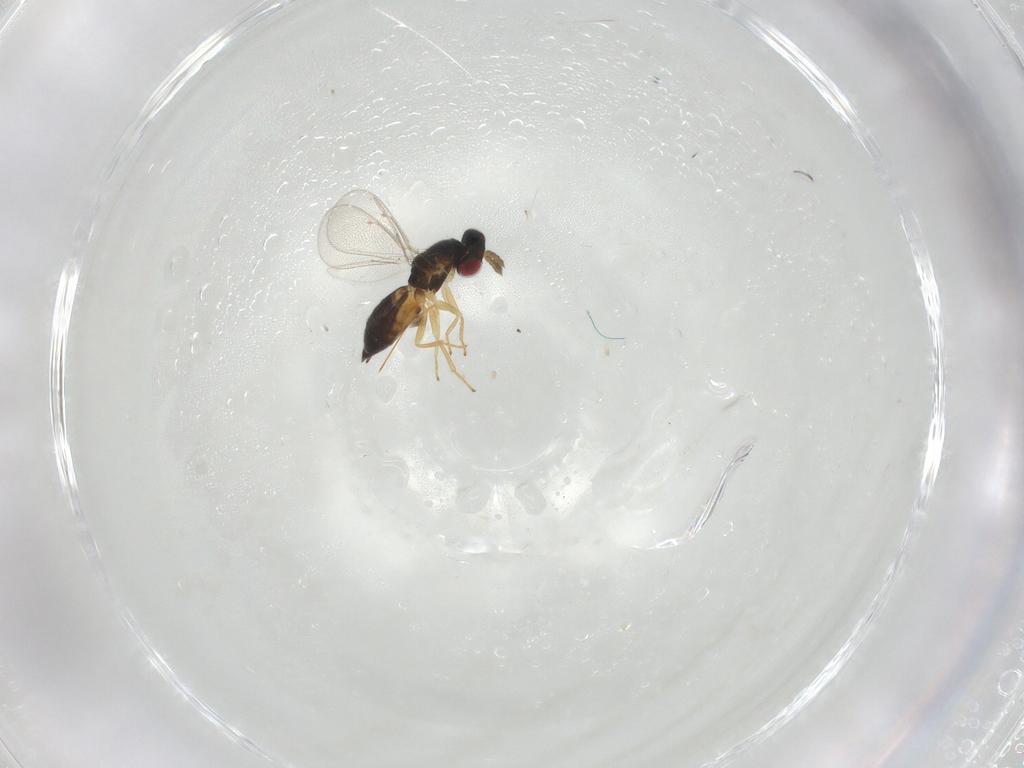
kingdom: Animalia
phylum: Arthropoda
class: Insecta
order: Hymenoptera
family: Eulophidae
